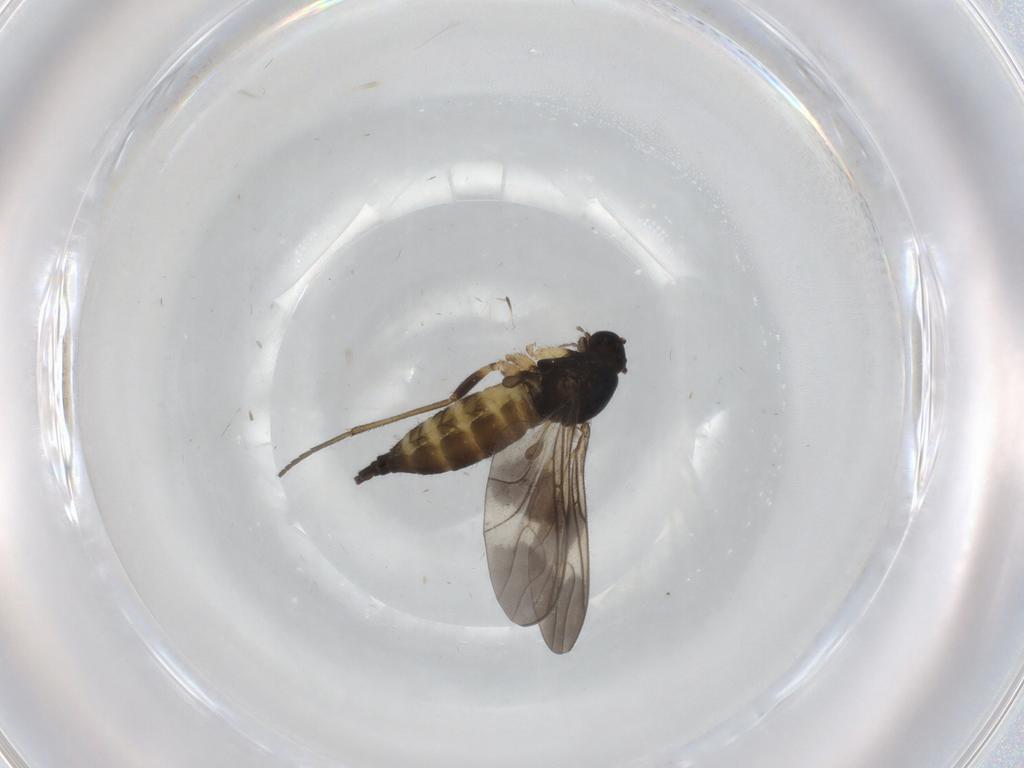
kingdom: Animalia
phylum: Arthropoda
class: Insecta
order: Diptera
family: Sciaridae
